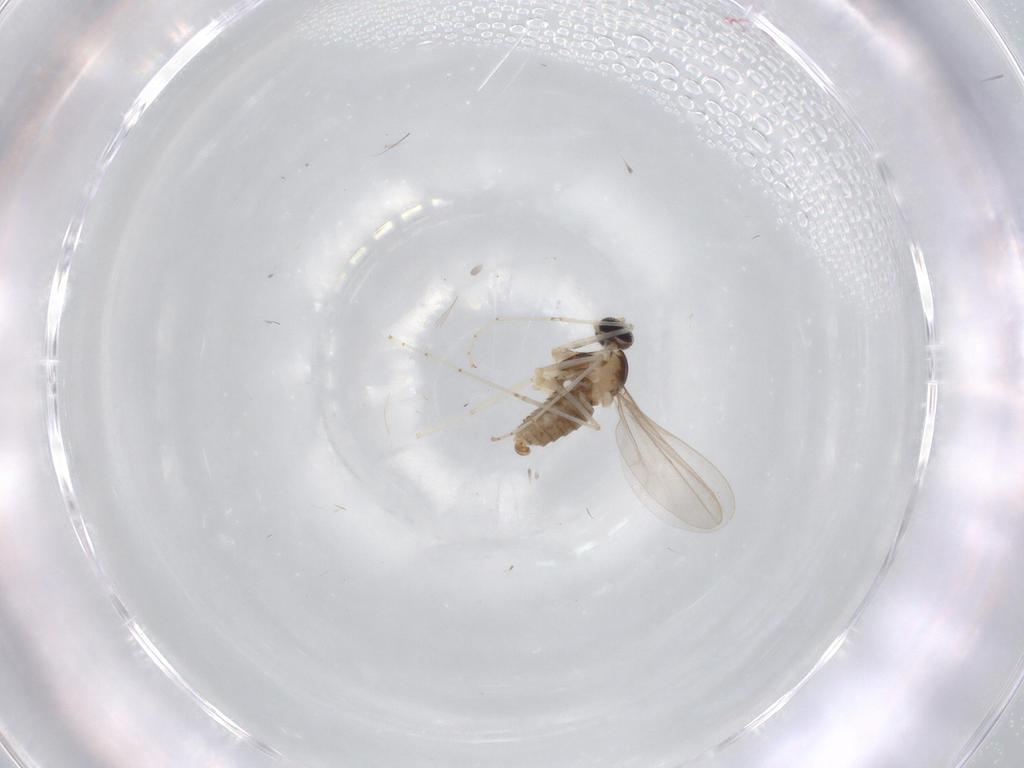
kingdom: Animalia
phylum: Arthropoda
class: Insecta
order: Diptera
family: Cecidomyiidae
